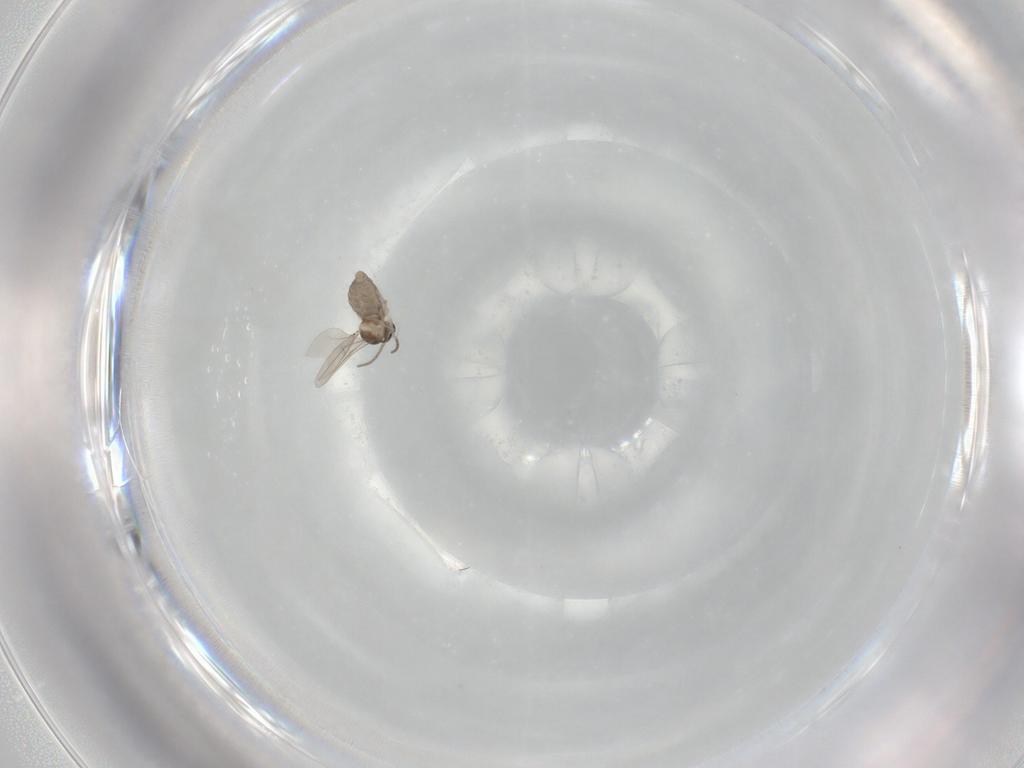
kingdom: Animalia
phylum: Arthropoda
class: Insecta
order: Diptera
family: Cecidomyiidae
